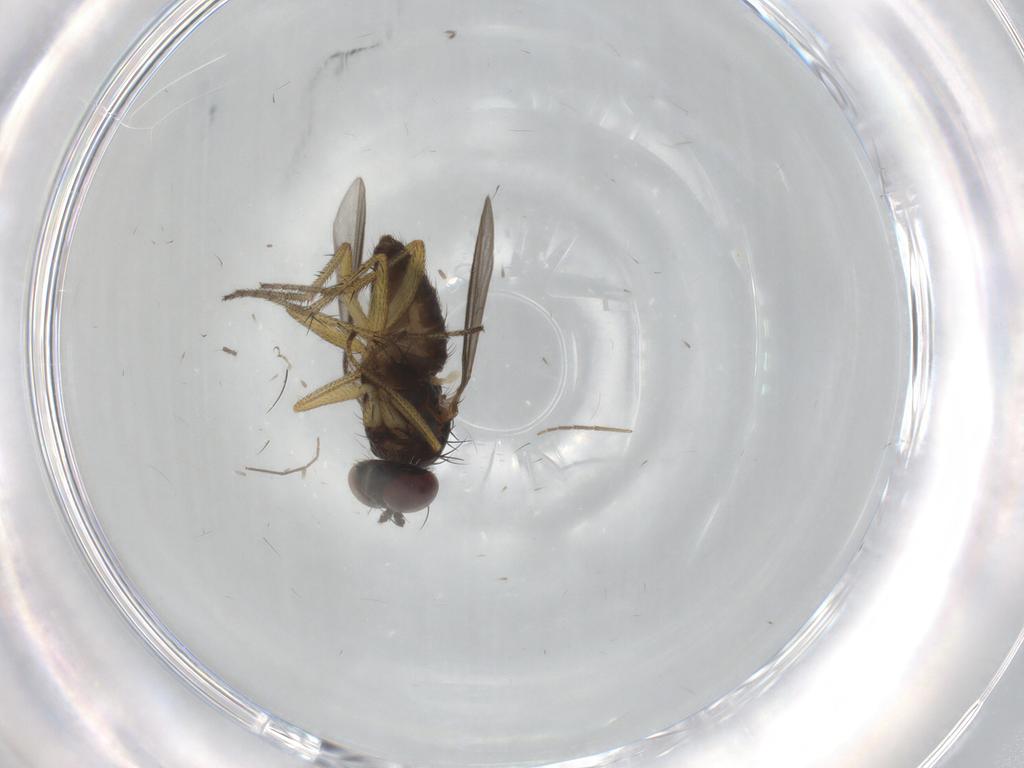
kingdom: Animalia
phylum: Arthropoda
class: Insecta
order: Diptera
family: Sciaridae
